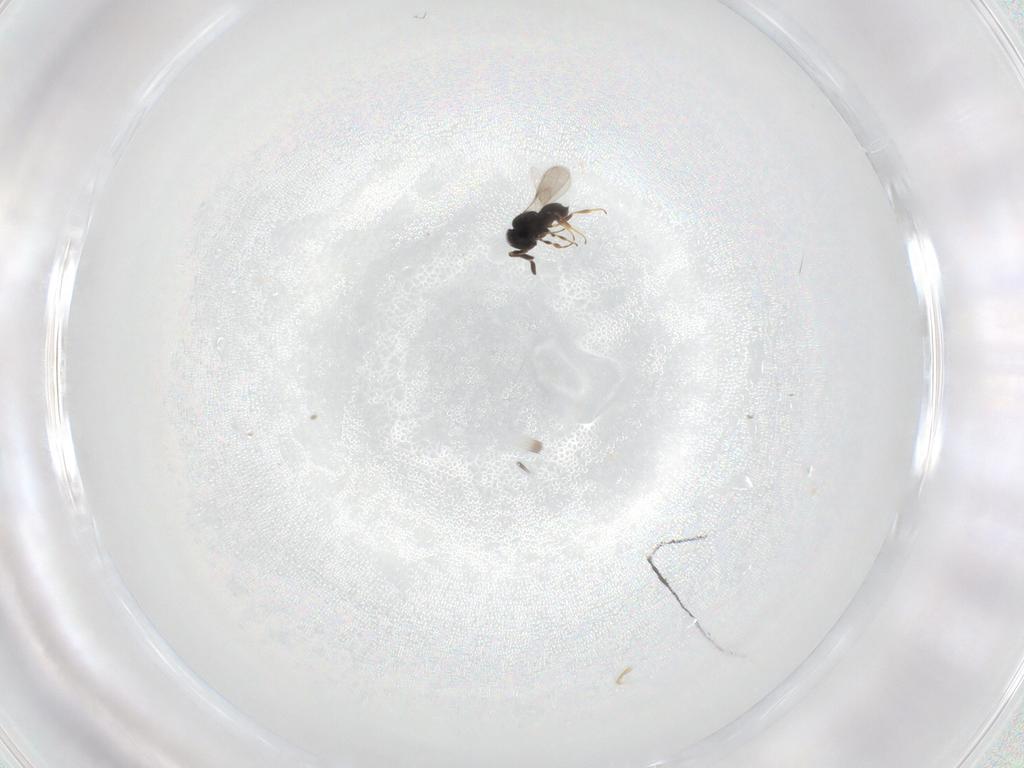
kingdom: Animalia
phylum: Arthropoda
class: Insecta
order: Hymenoptera
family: Scelionidae
